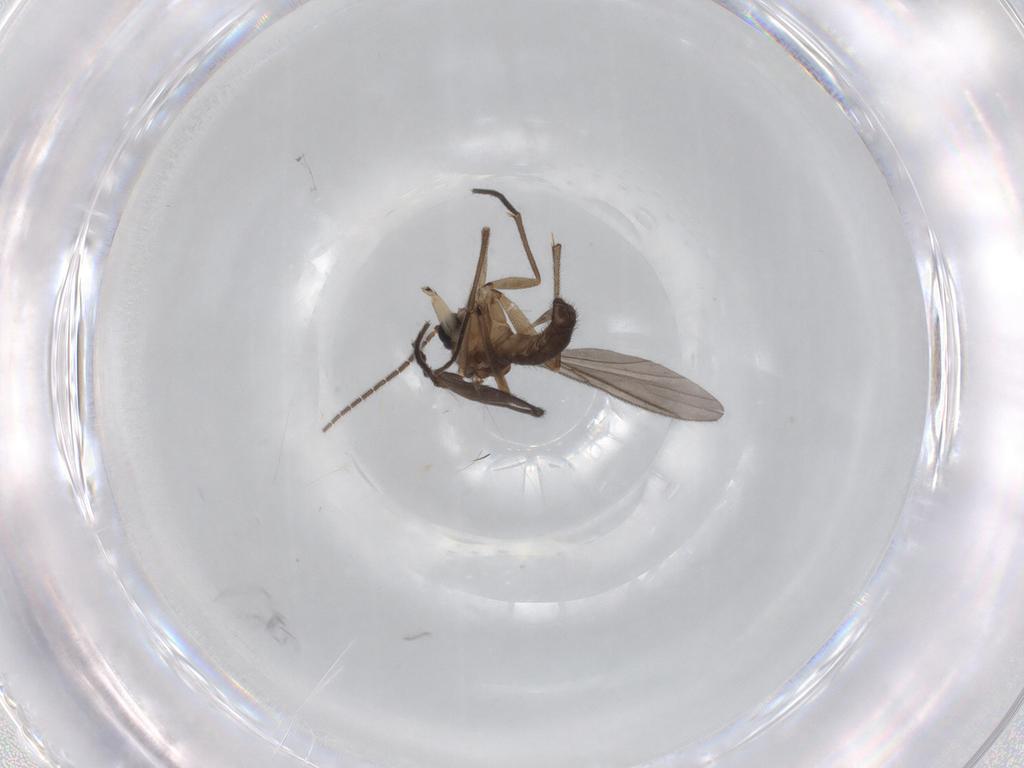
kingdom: Animalia
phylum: Arthropoda
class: Insecta
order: Diptera
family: Sciaridae
